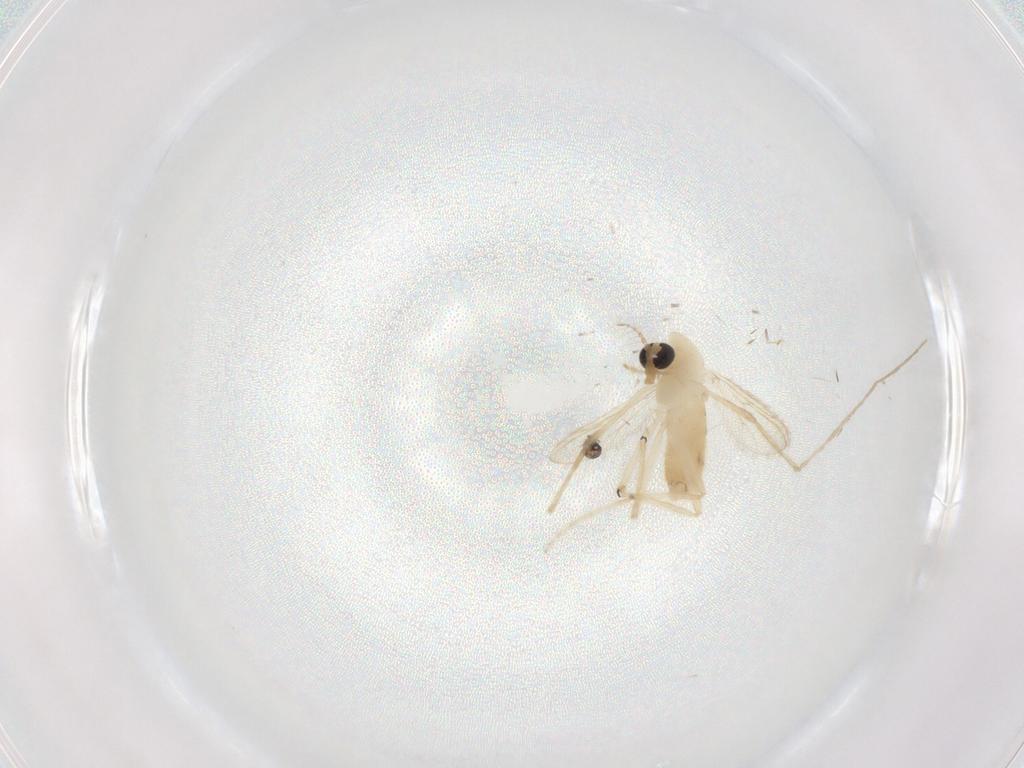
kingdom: Animalia
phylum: Arthropoda
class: Insecta
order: Diptera
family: Chironomidae
